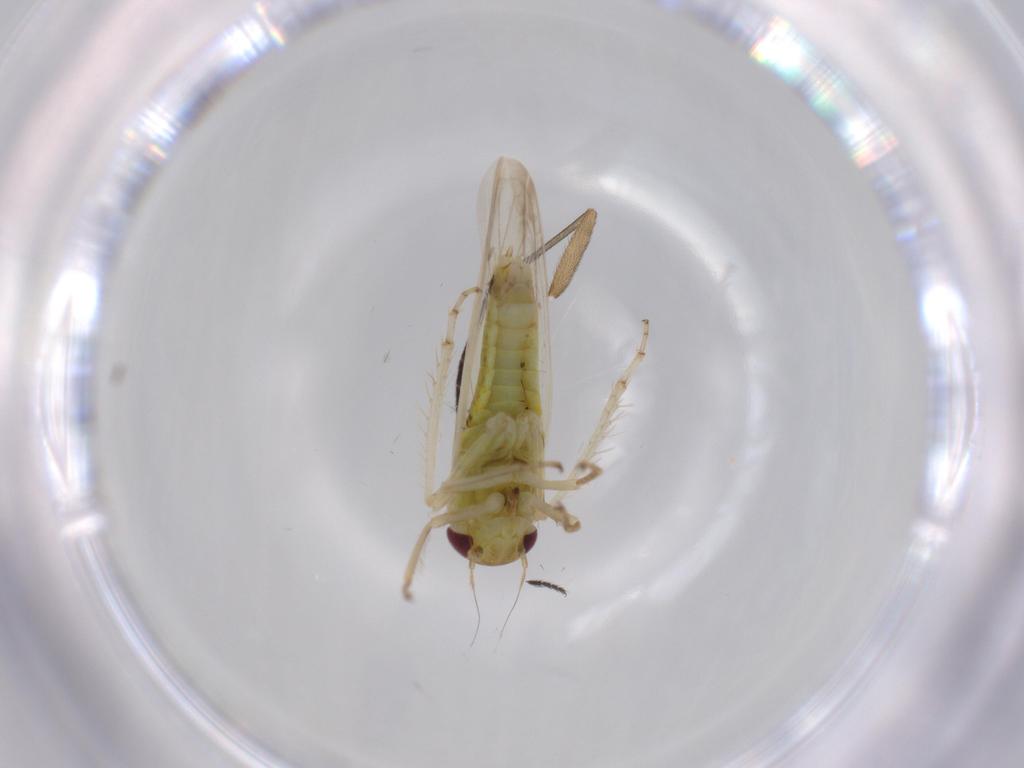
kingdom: Animalia
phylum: Arthropoda
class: Insecta
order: Hemiptera
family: Cicadellidae
